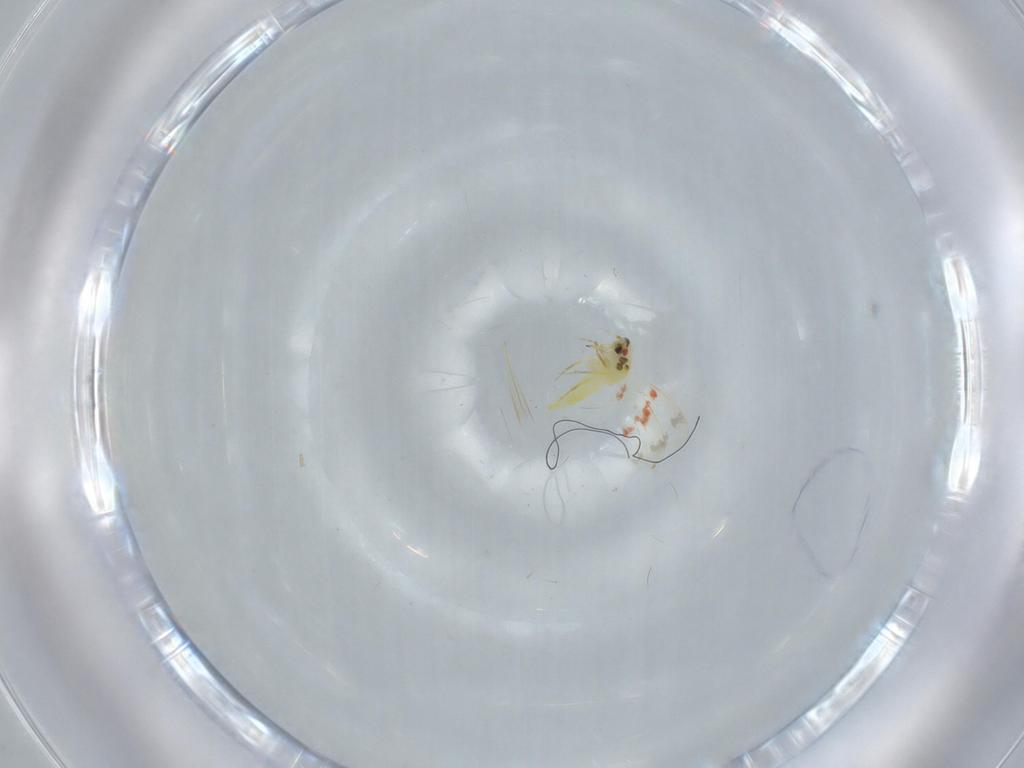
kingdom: Animalia
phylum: Arthropoda
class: Insecta
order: Hemiptera
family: Aleyrodidae
